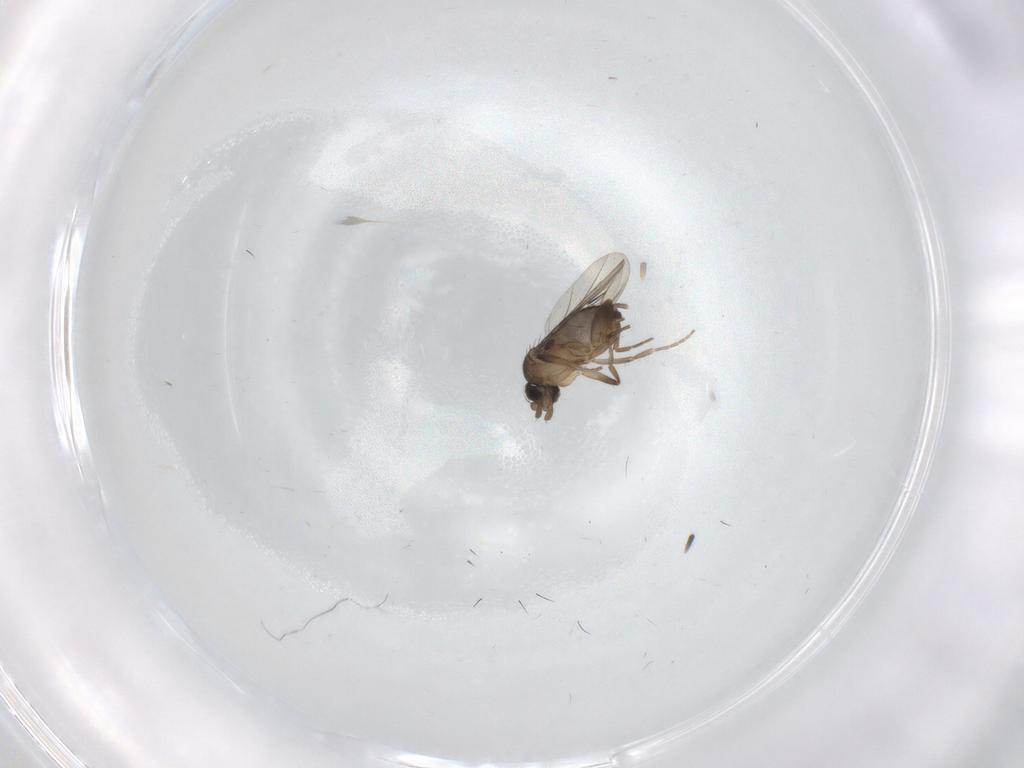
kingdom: Animalia
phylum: Arthropoda
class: Insecta
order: Diptera
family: Phoridae
